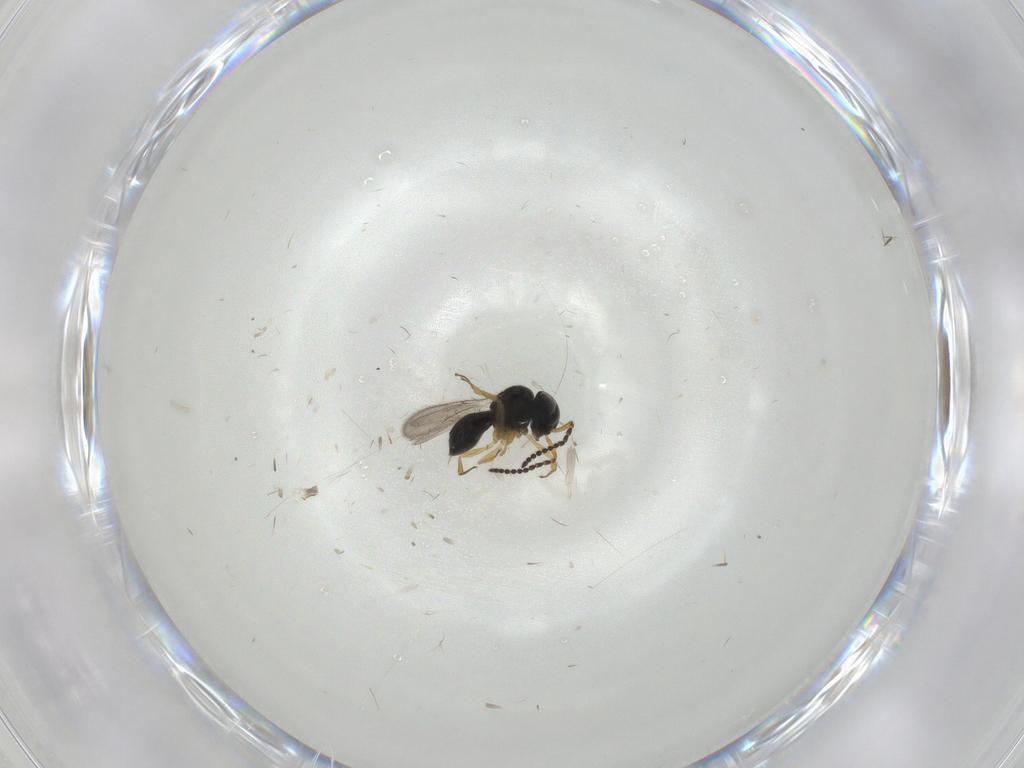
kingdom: Animalia
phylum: Arthropoda
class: Insecta
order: Hymenoptera
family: Scelionidae
